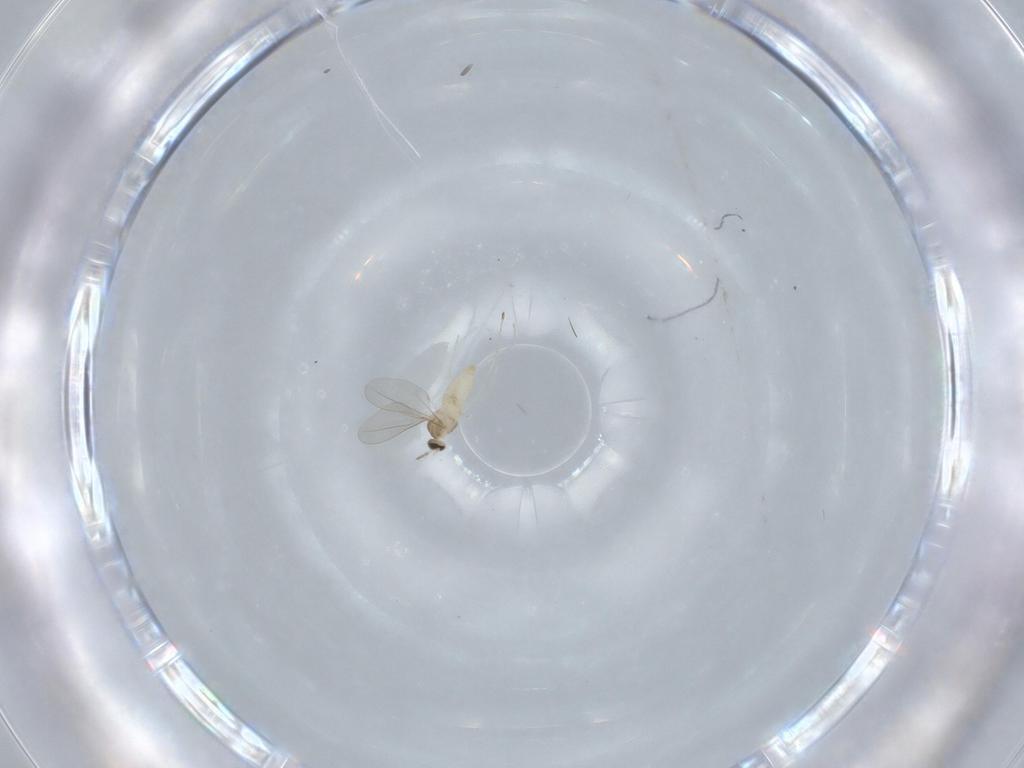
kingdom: Animalia
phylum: Arthropoda
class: Insecta
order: Diptera
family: Cecidomyiidae
